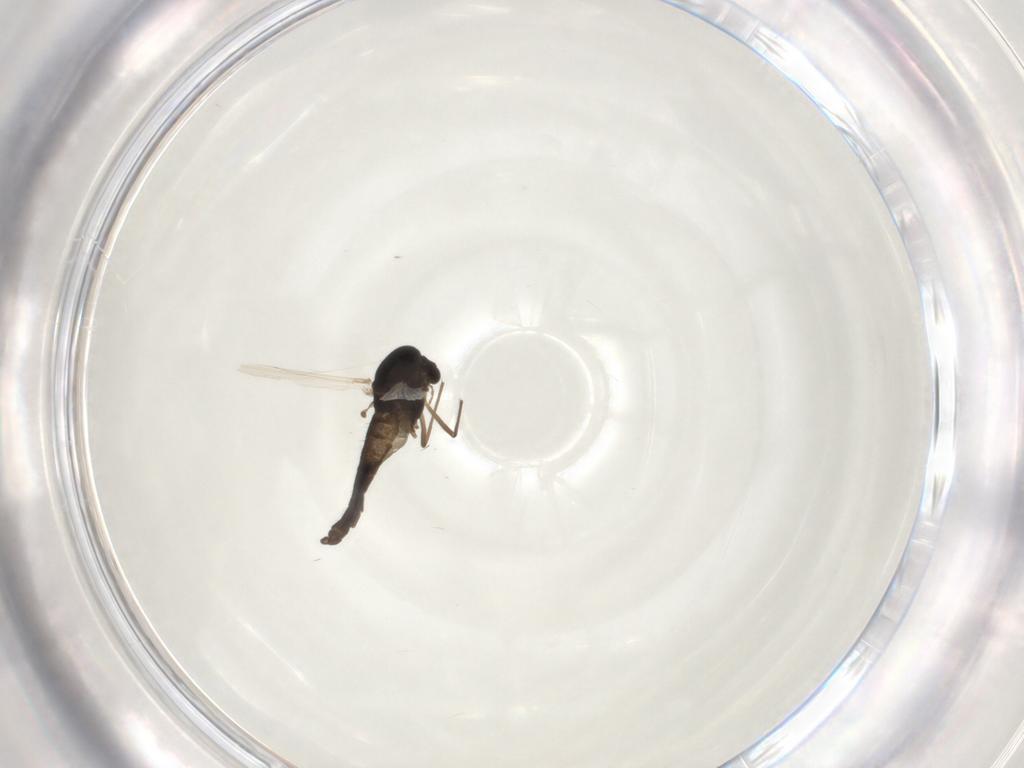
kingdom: Animalia
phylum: Arthropoda
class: Insecta
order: Diptera
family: Chironomidae
